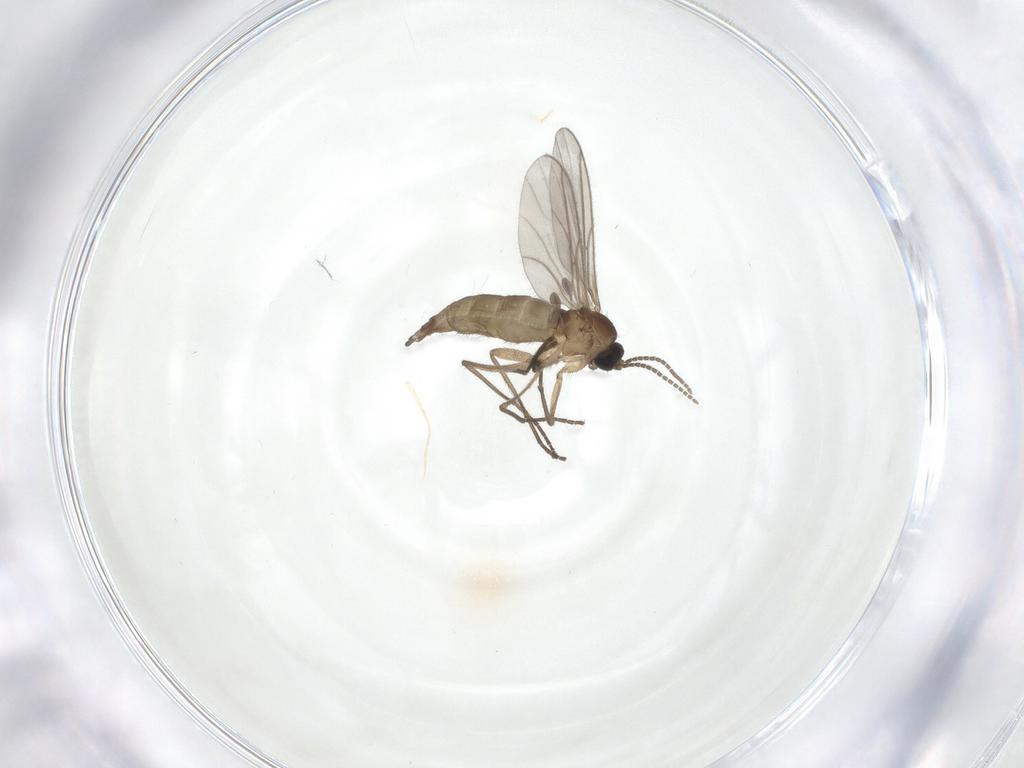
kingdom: Animalia
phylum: Arthropoda
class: Insecta
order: Diptera
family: Sciaridae
